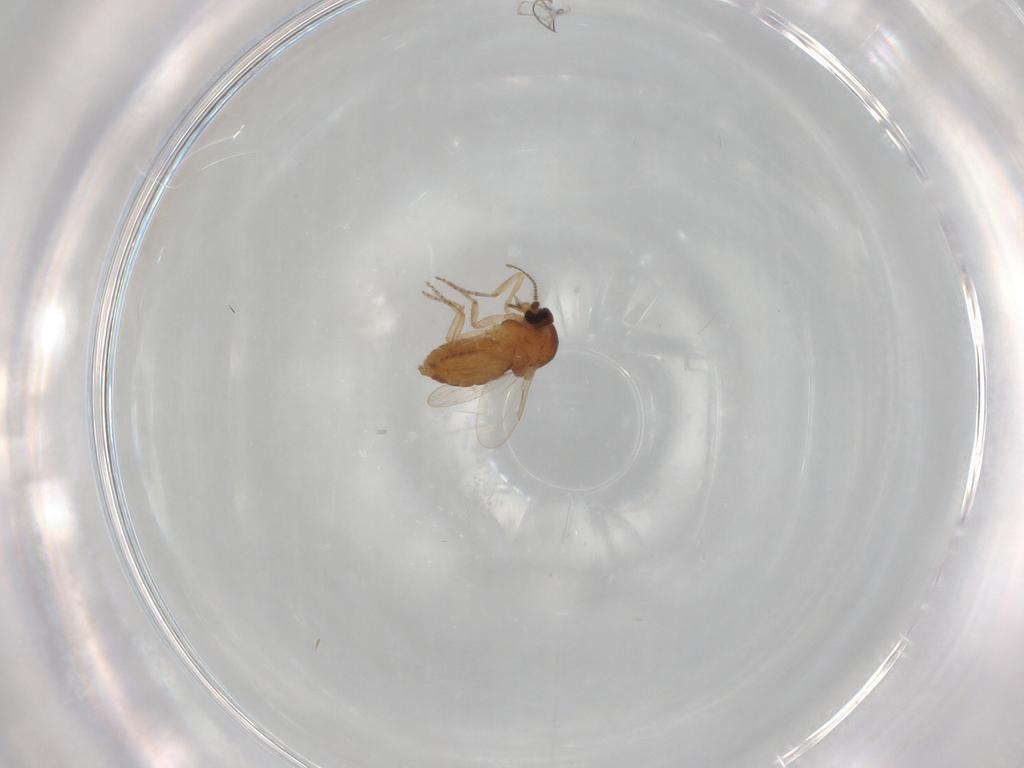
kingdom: Animalia
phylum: Arthropoda
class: Insecta
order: Diptera
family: Ceratopogonidae
